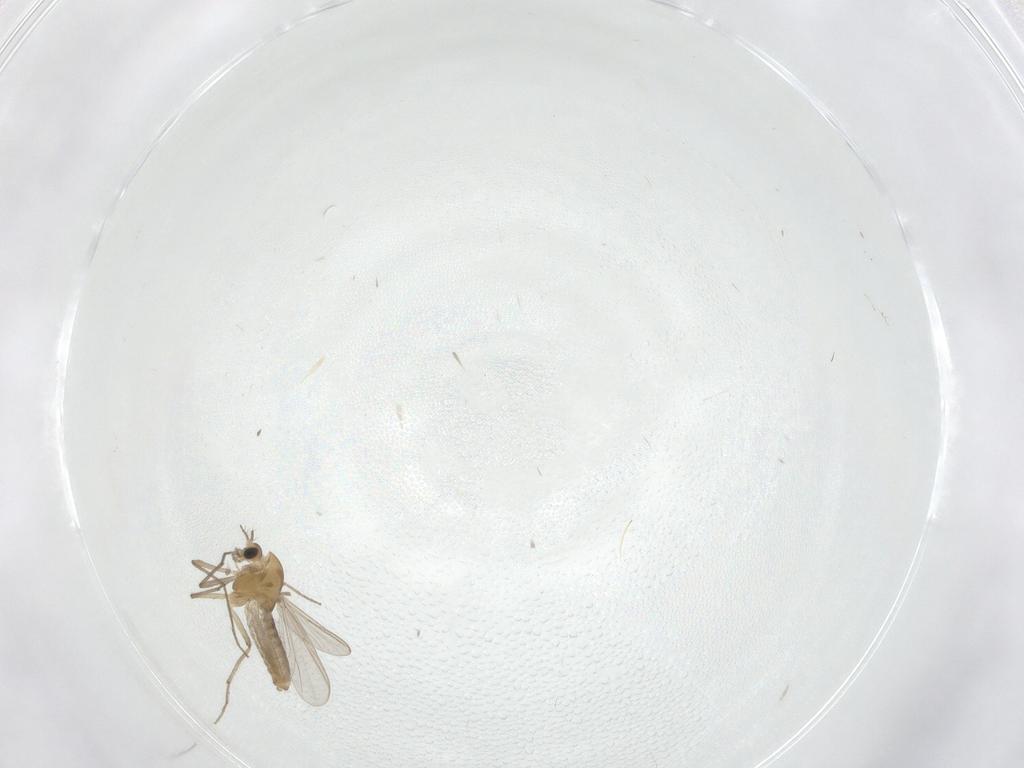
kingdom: Animalia
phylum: Arthropoda
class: Insecta
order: Diptera
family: Chironomidae
